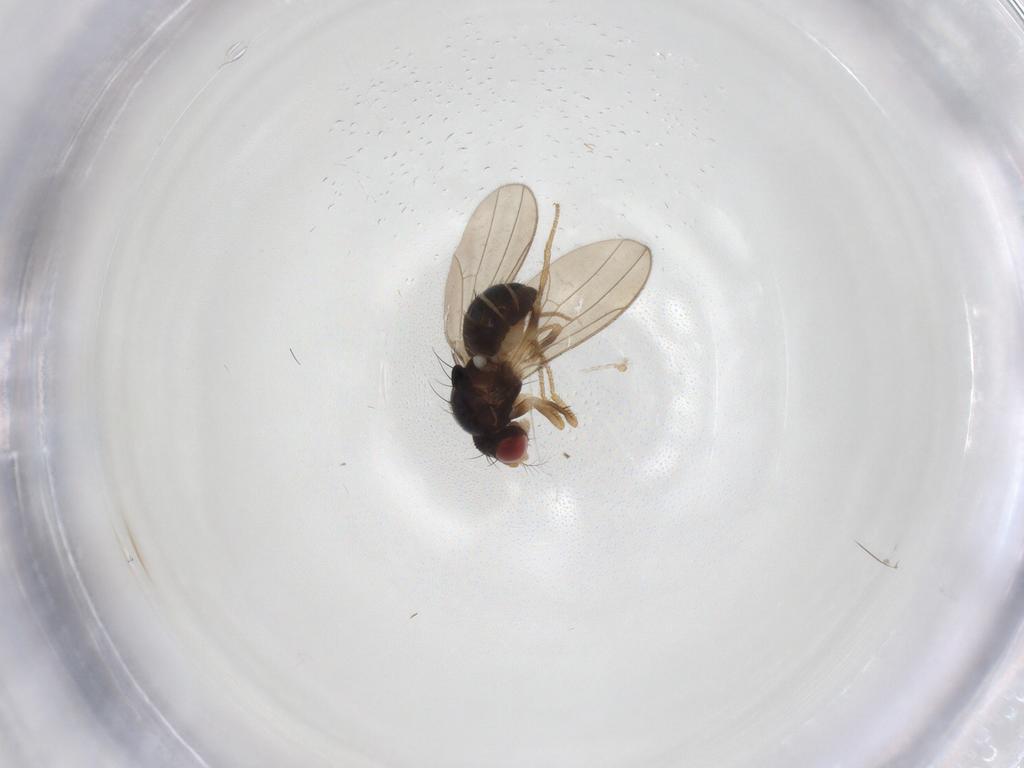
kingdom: Animalia
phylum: Arthropoda
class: Insecta
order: Diptera
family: Drosophilidae
